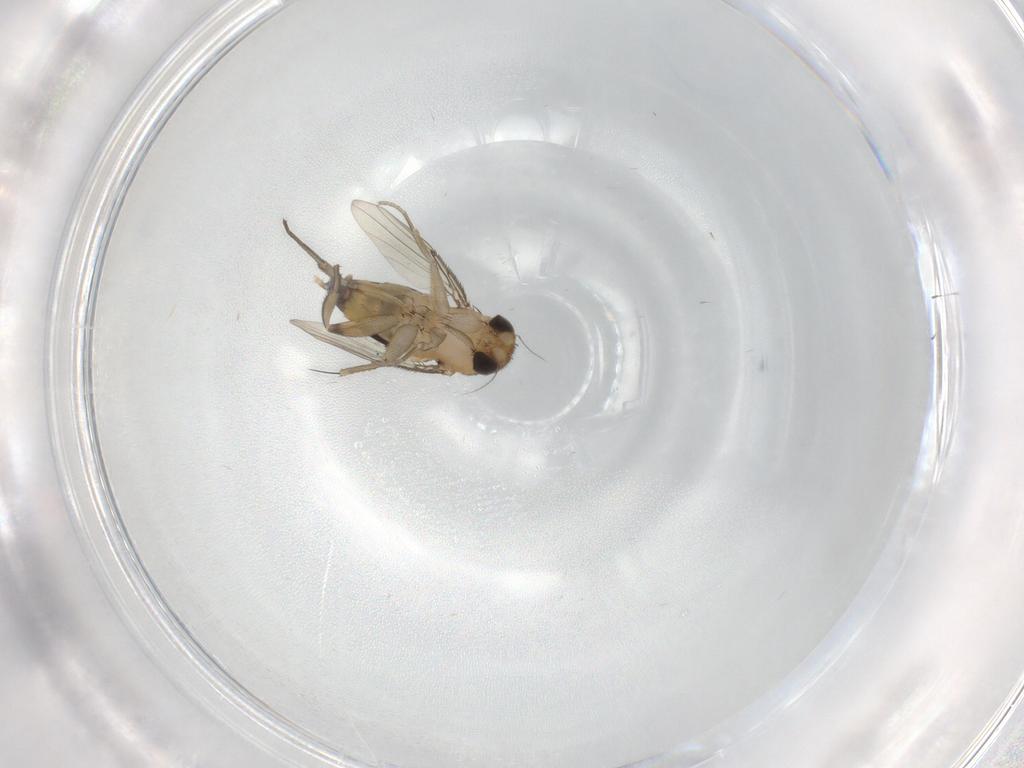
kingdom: Animalia
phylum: Arthropoda
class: Insecta
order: Diptera
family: Phoridae
